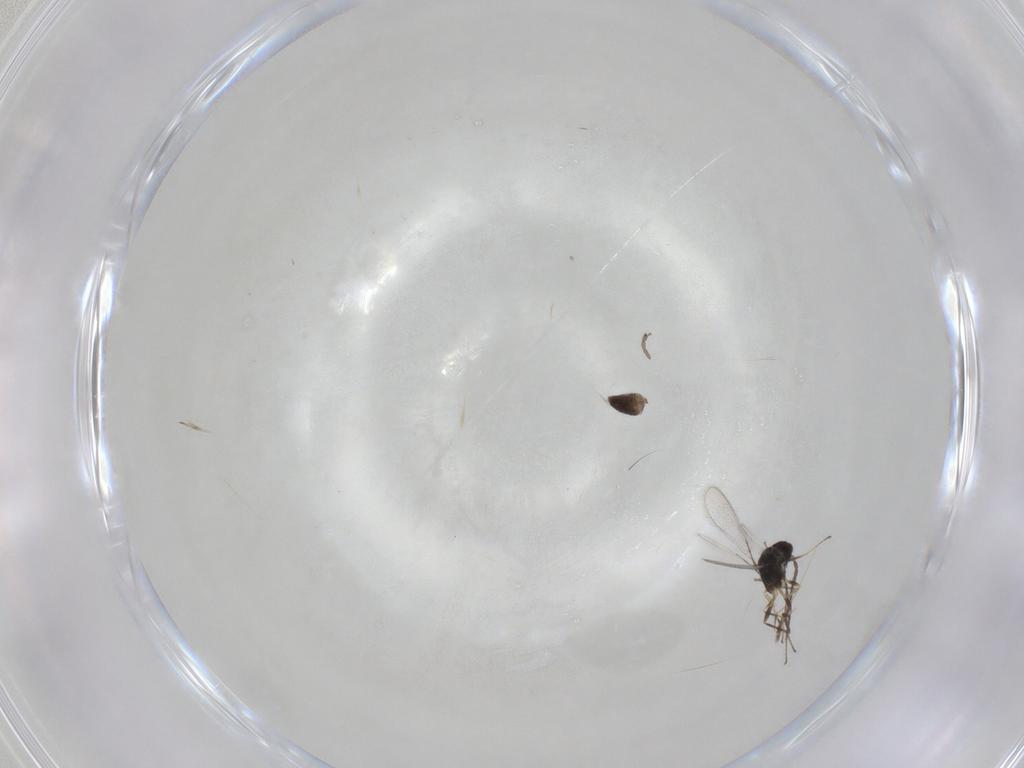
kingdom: Animalia
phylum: Arthropoda
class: Insecta
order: Hymenoptera
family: Mymaridae
